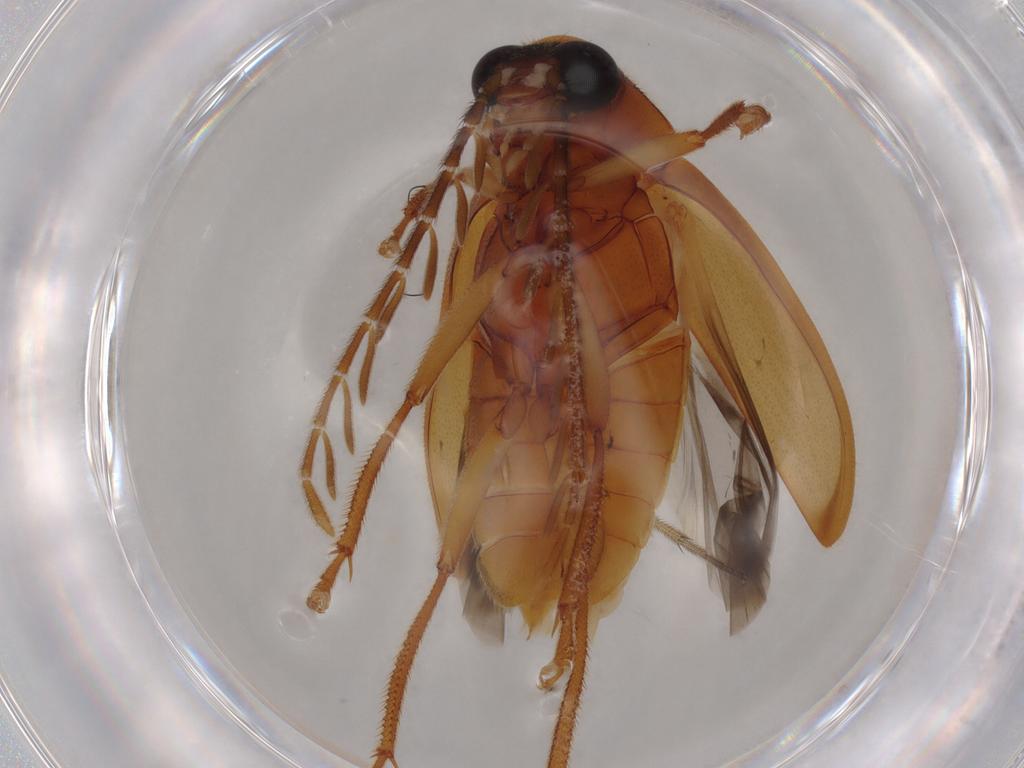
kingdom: Animalia
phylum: Arthropoda
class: Insecta
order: Coleoptera
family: Ptilodactylidae
